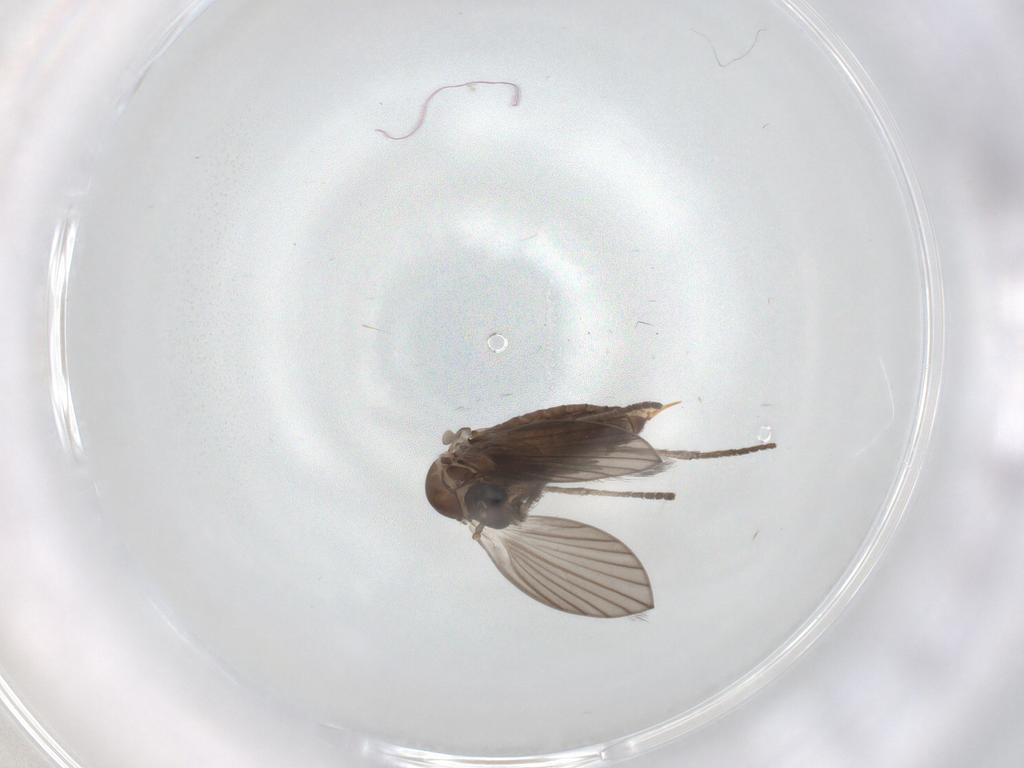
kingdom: Animalia
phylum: Arthropoda
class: Insecta
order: Diptera
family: Psychodidae
